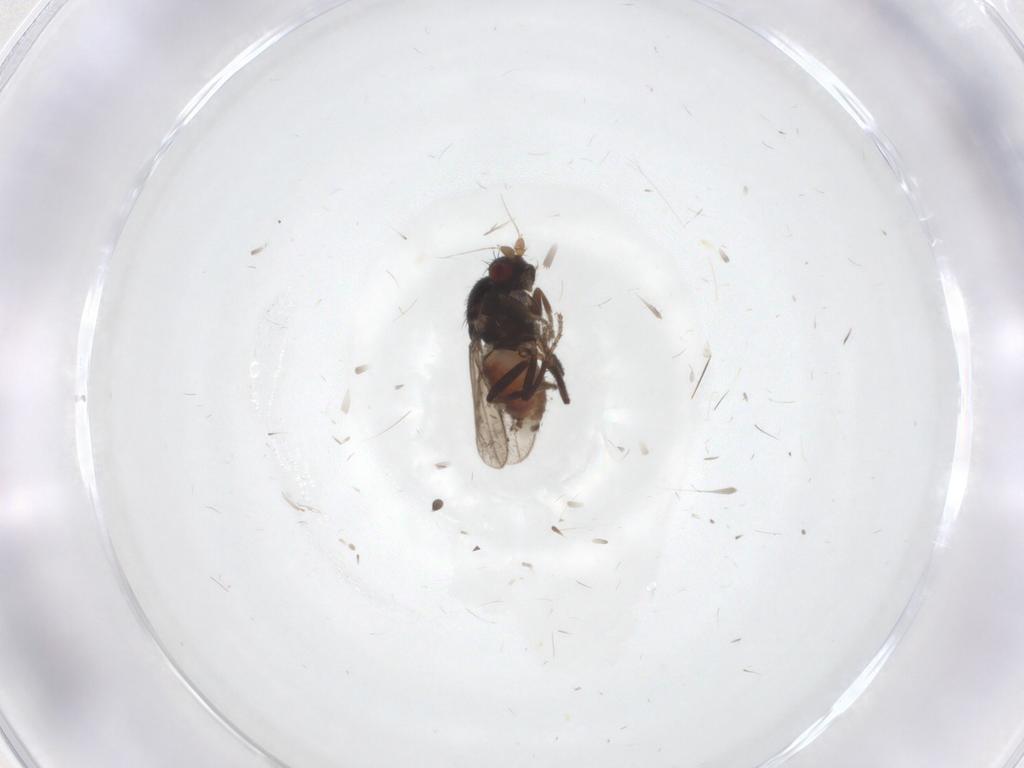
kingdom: Animalia
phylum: Arthropoda
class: Insecta
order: Diptera
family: Sphaeroceridae
